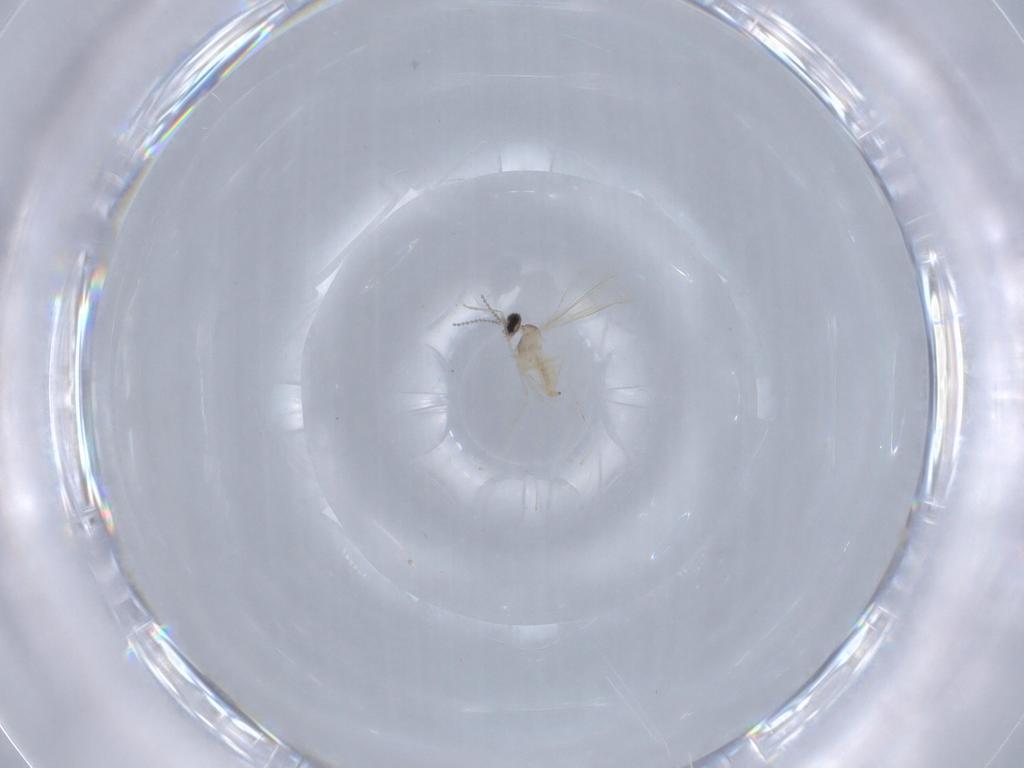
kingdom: Animalia
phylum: Arthropoda
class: Insecta
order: Diptera
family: Cecidomyiidae
